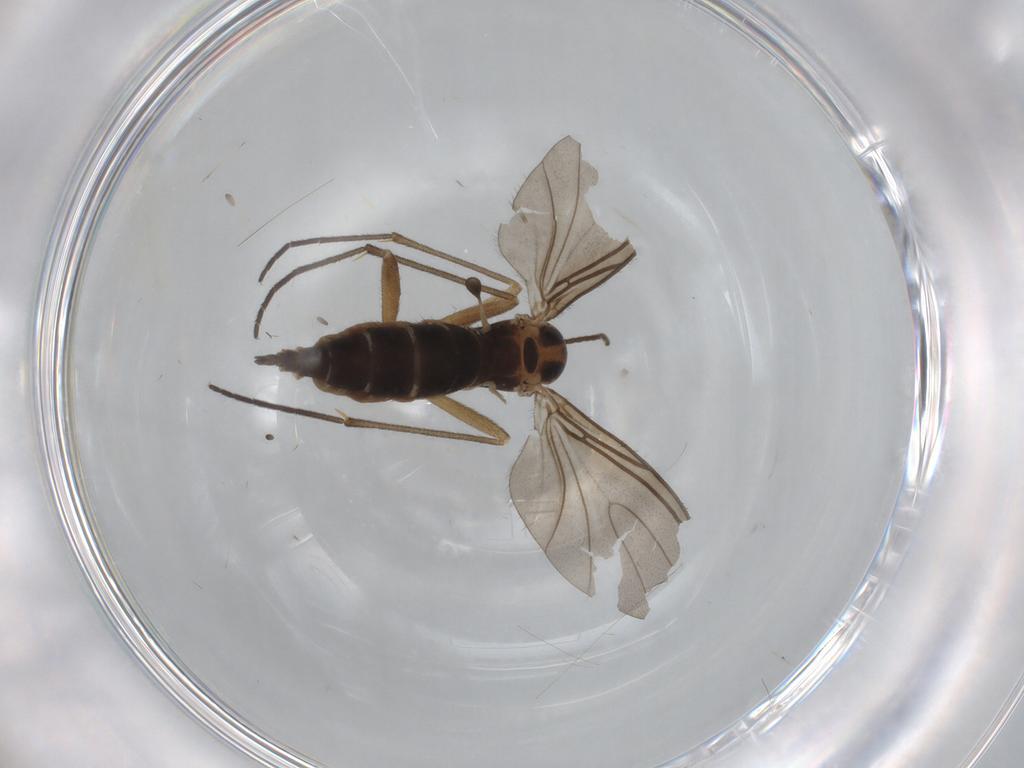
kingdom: Animalia
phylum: Arthropoda
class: Insecta
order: Diptera
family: Sciaridae
